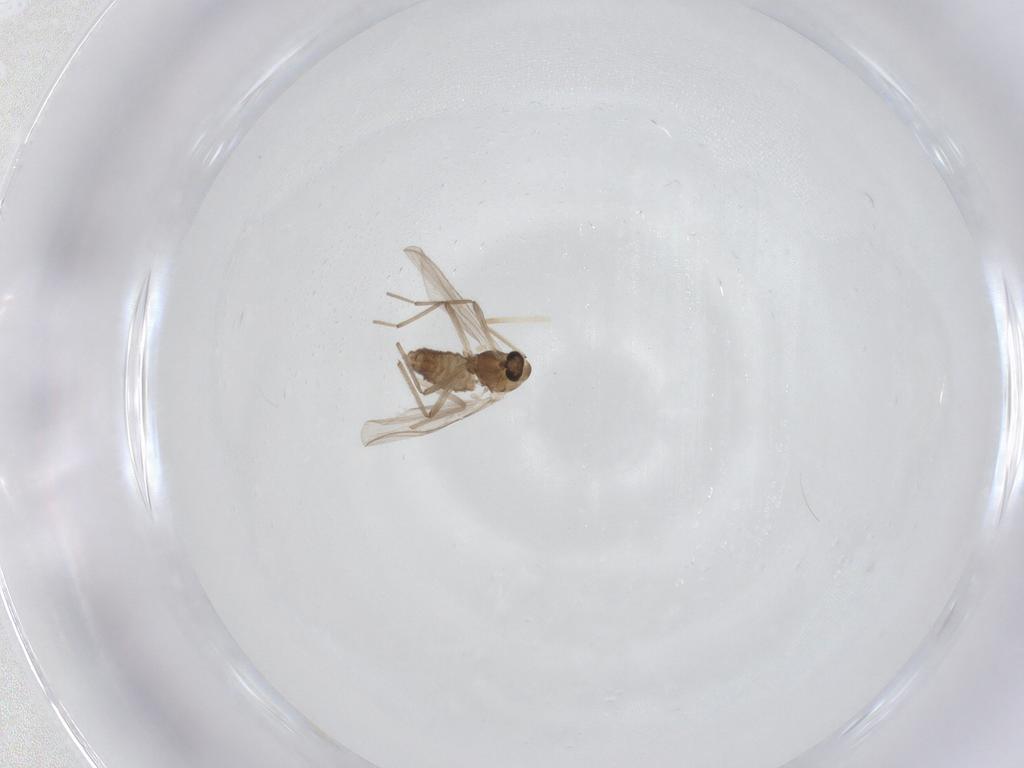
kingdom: Animalia
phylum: Arthropoda
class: Insecta
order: Diptera
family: Chironomidae
